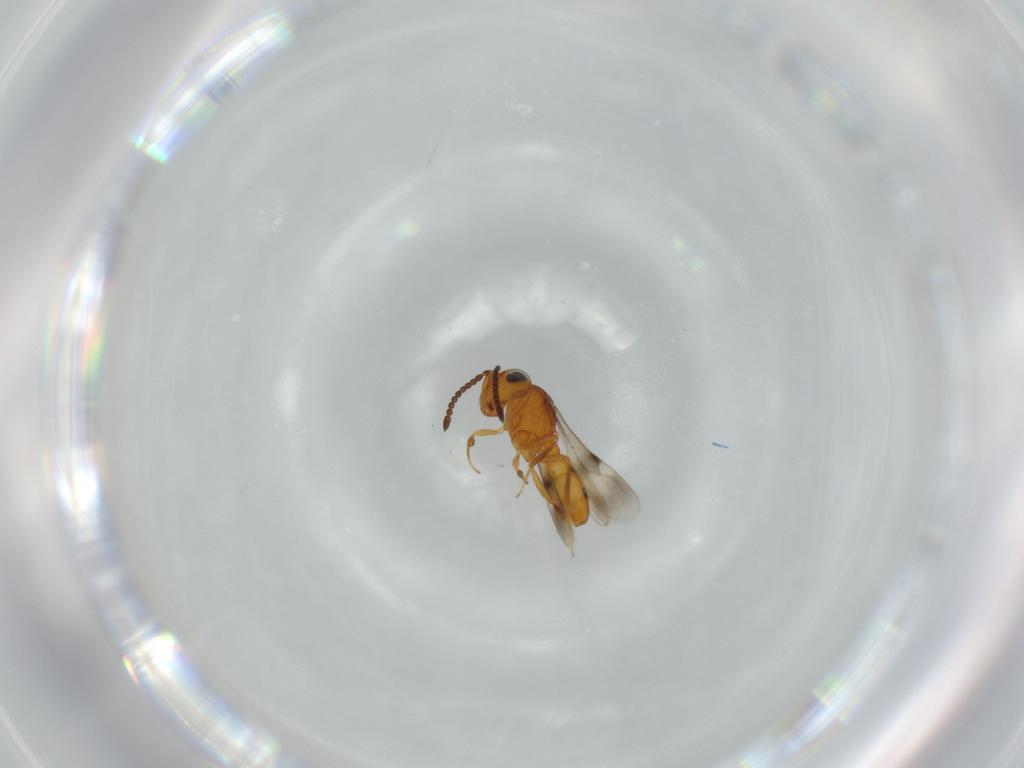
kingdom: Animalia
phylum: Arthropoda
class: Insecta
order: Hymenoptera
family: Scelionidae
